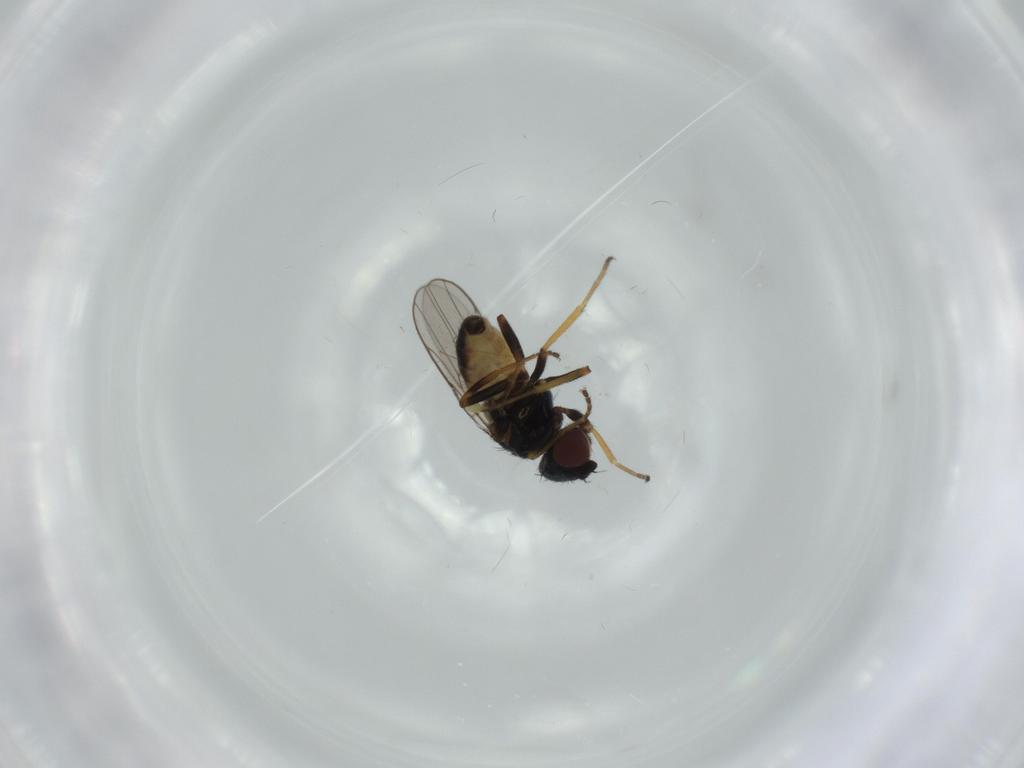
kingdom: Animalia
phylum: Arthropoda
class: Insecta
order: Diptera
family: Chloropidae
